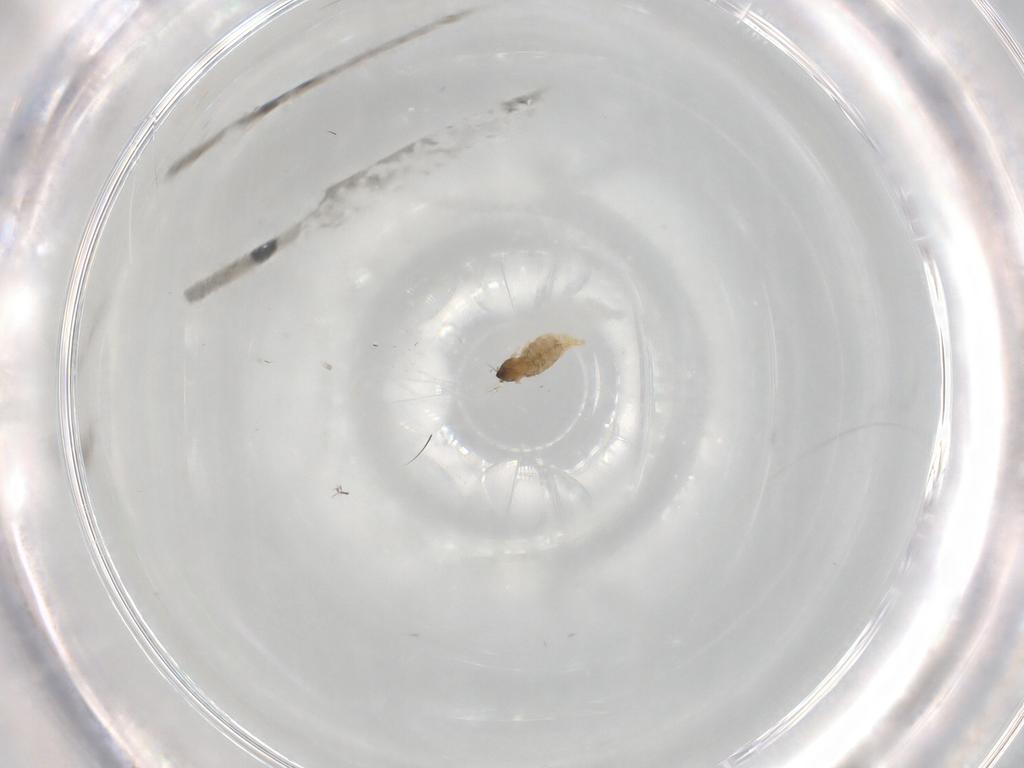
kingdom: Animalia
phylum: Arthropoda
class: Insecta
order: Diptera
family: Cecidomyiidae
